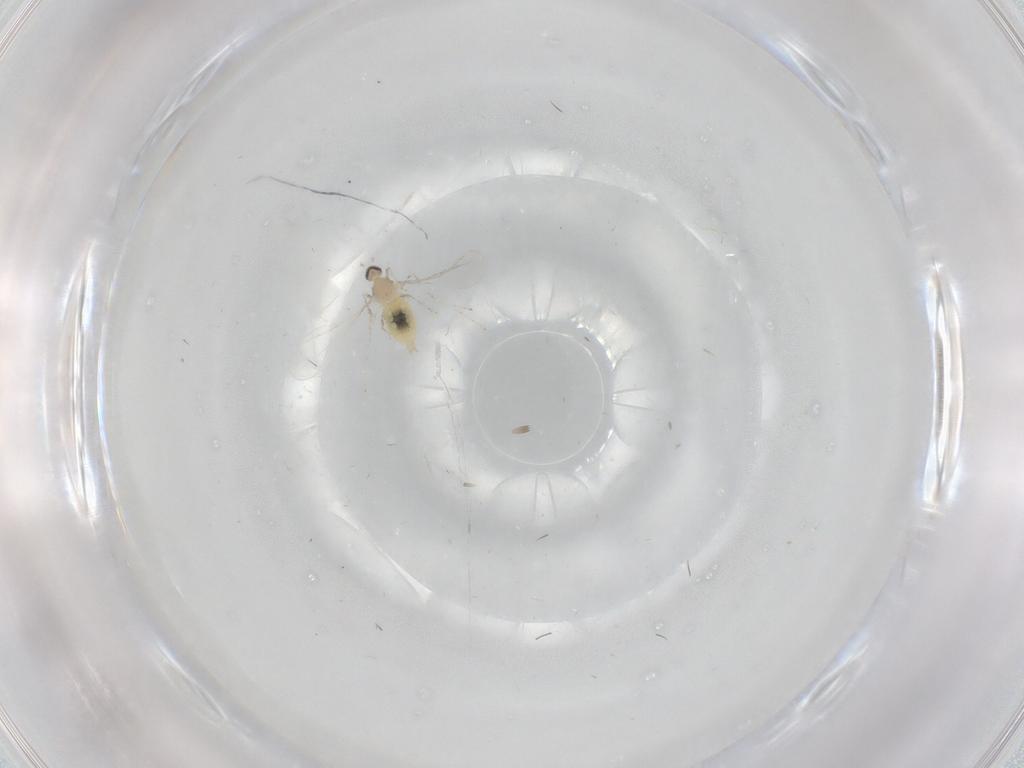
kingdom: Animalia
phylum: Arthropoda
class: Insecta
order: Diptera
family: Cecidomyiidae
